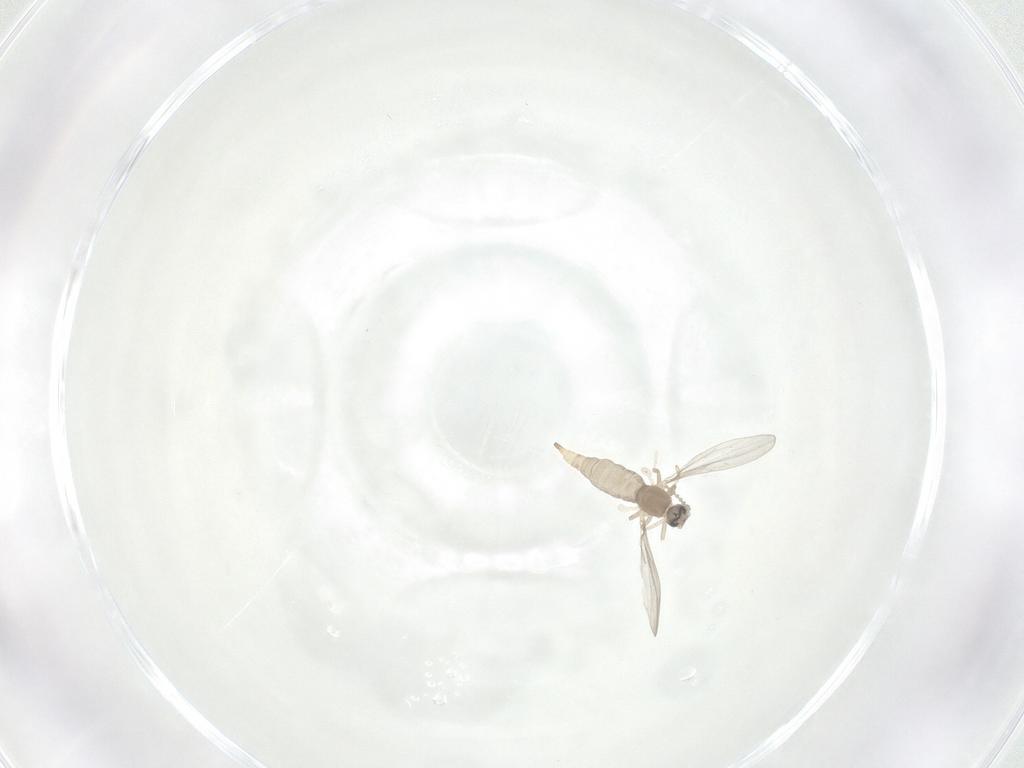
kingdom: Animalia
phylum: Arthropoda
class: Insecta
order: Diptera
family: Cecidomyiidae
